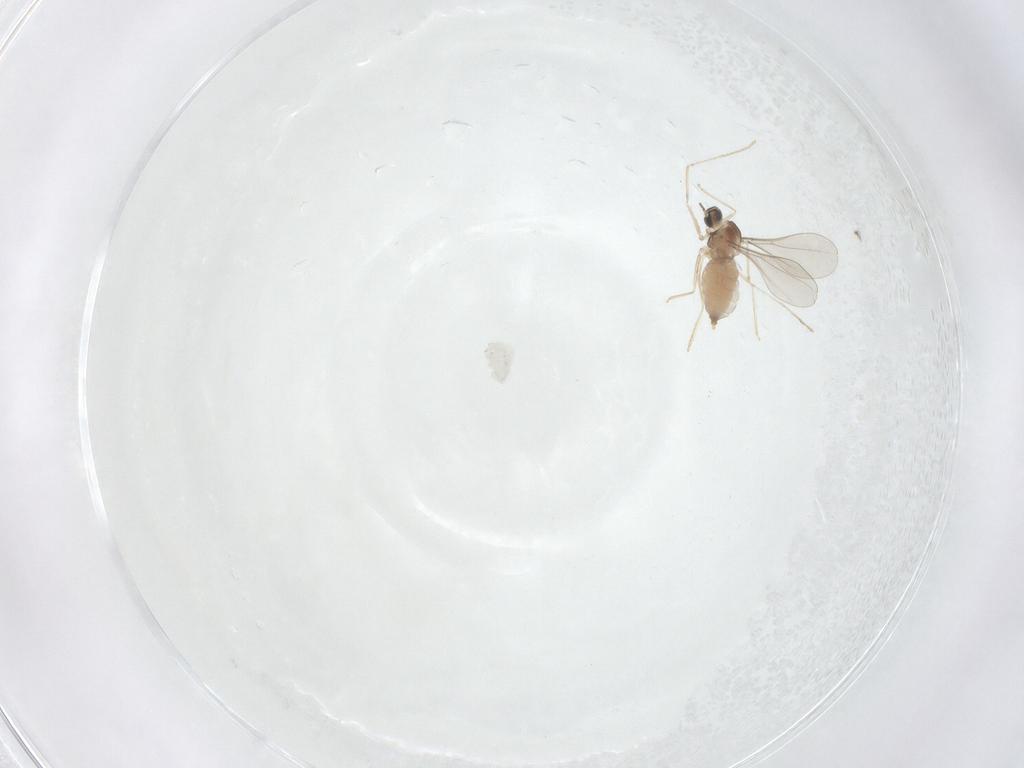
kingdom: Animalia
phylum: Arthropoda
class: Insecta
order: Diptera
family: Cecidomyiidae
